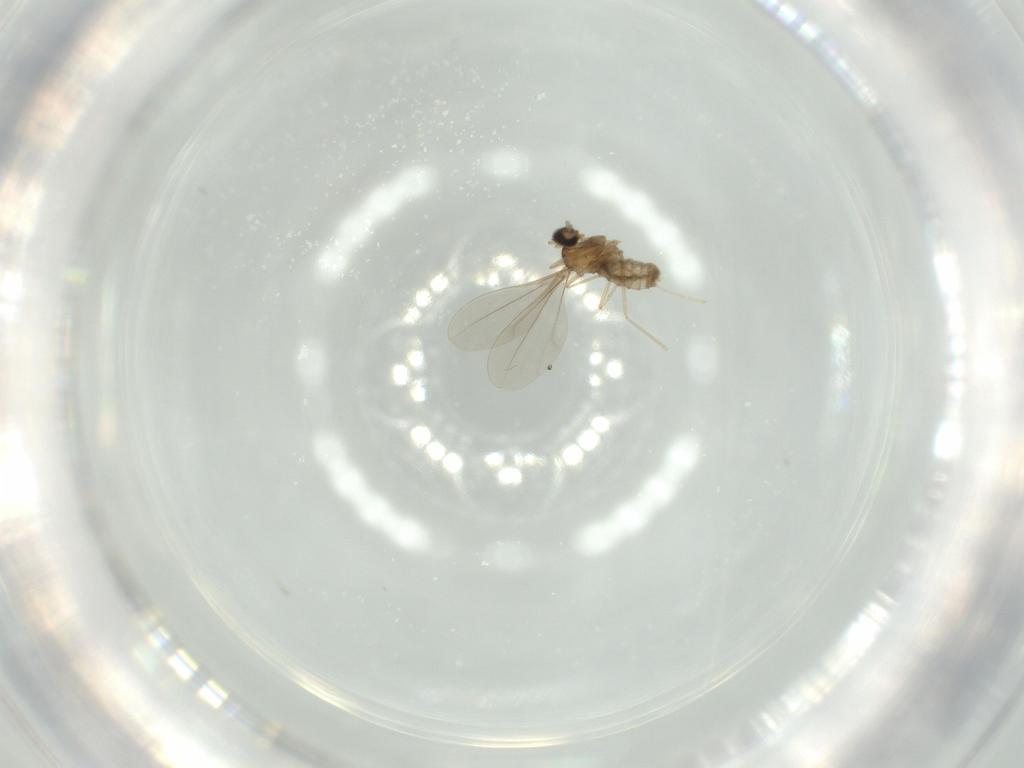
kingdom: Animalia
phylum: Arthropoda
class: Insecta
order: Diptera
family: Cecidomyiidae
